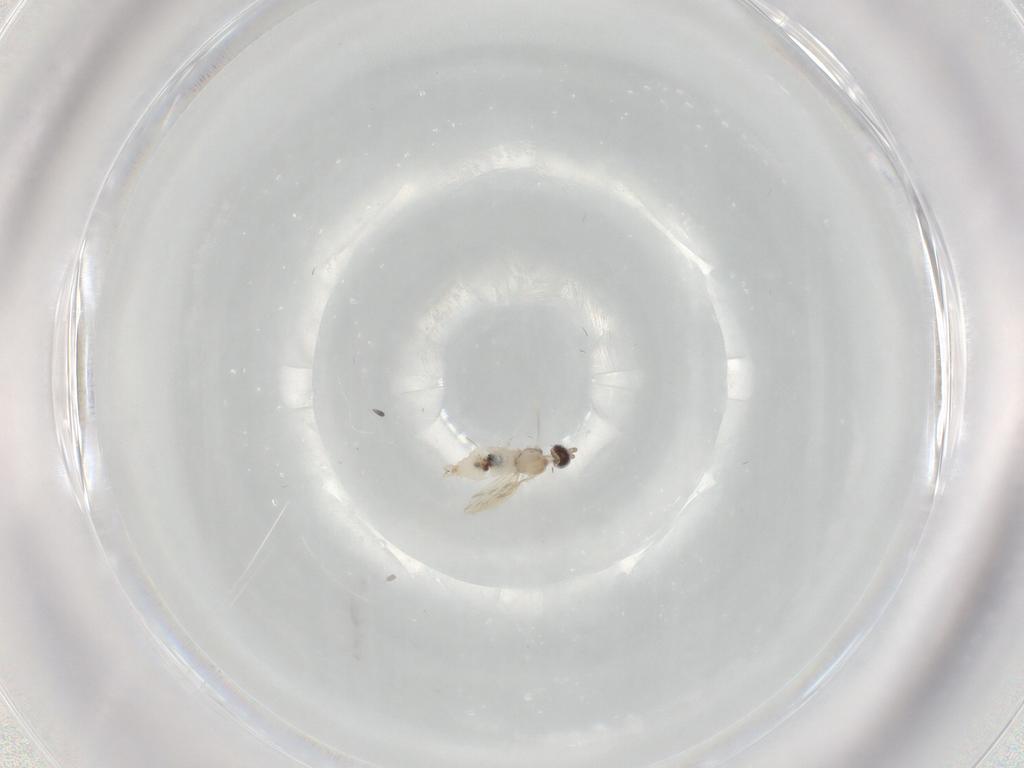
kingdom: Animalia
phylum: Arthropoda
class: Insecta
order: Diptera
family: Cecidomyiidae
